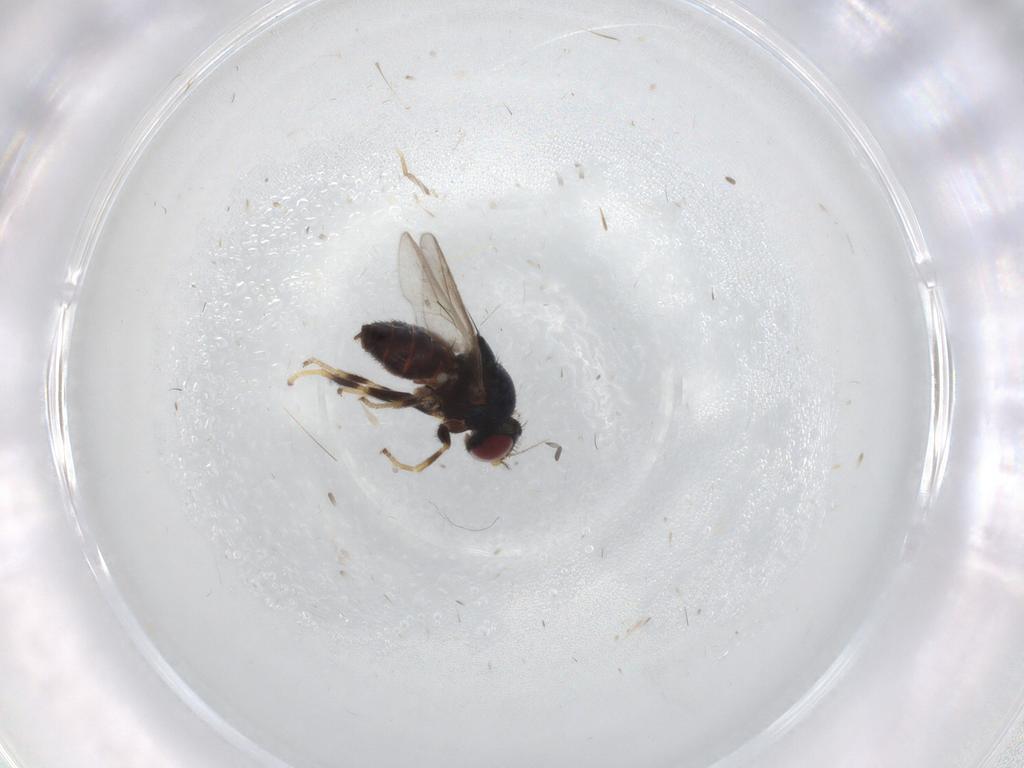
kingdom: Animalia
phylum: Arthropoda
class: Insecta
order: Diptera
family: Chloropidae
